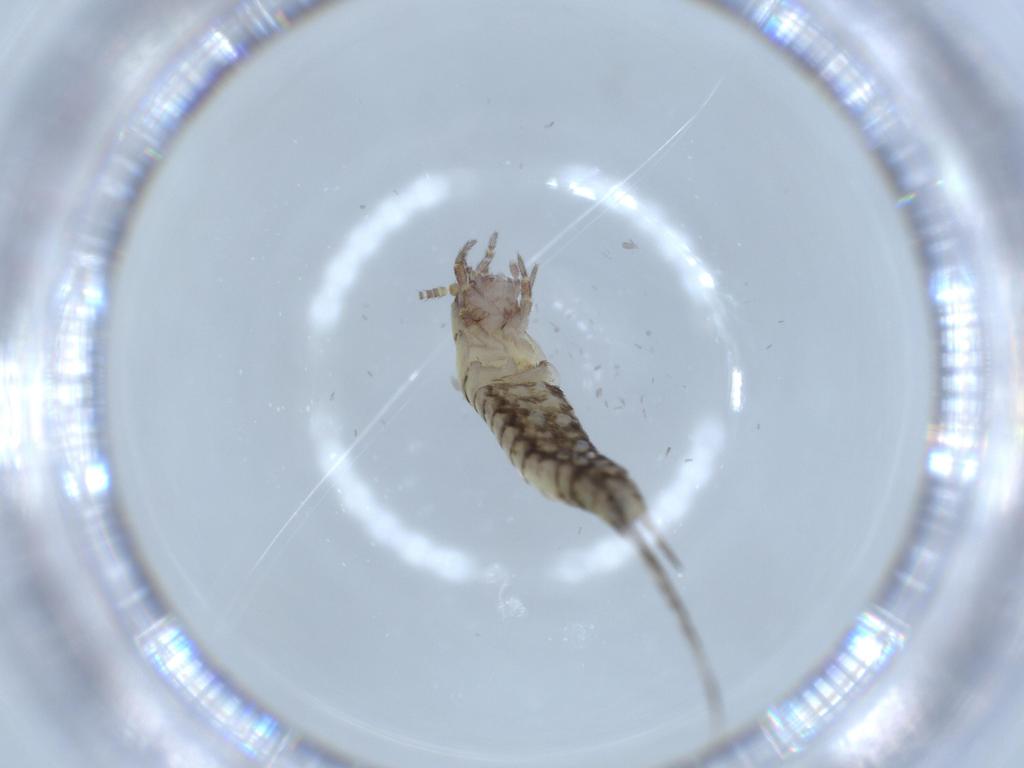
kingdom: Animalia
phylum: Arthropoda
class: Insecta
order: Archaeognatha
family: Machilidae
